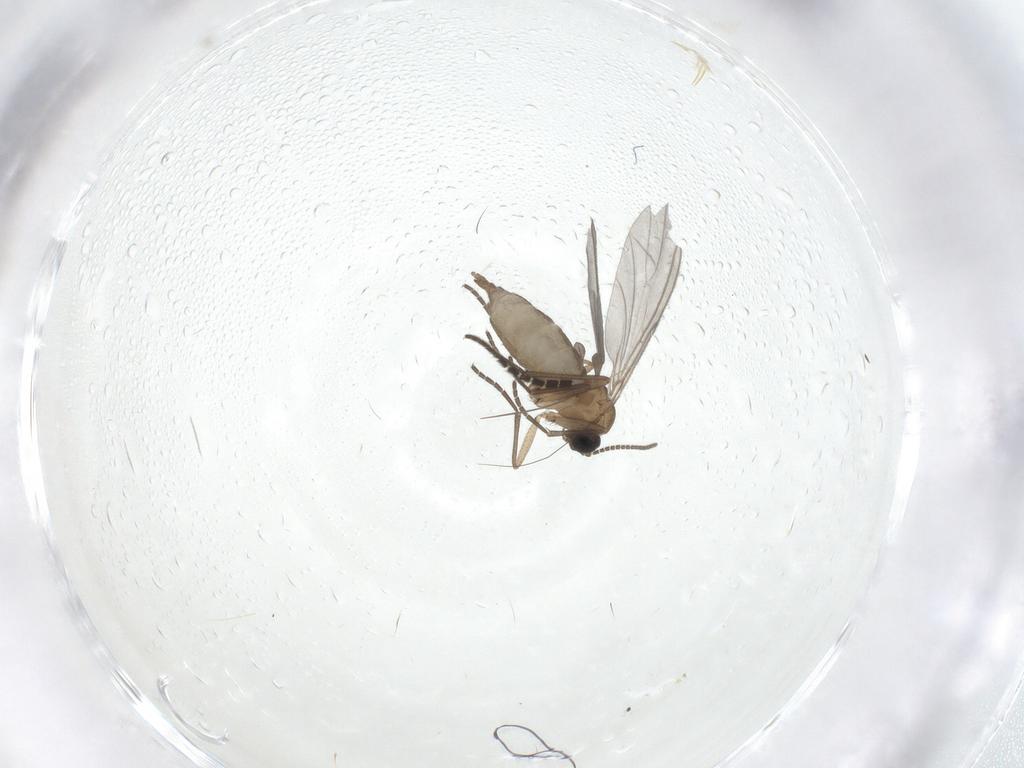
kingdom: Animalia
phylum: Arthropoda
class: Insecta
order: Diptera
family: Sciaridae
